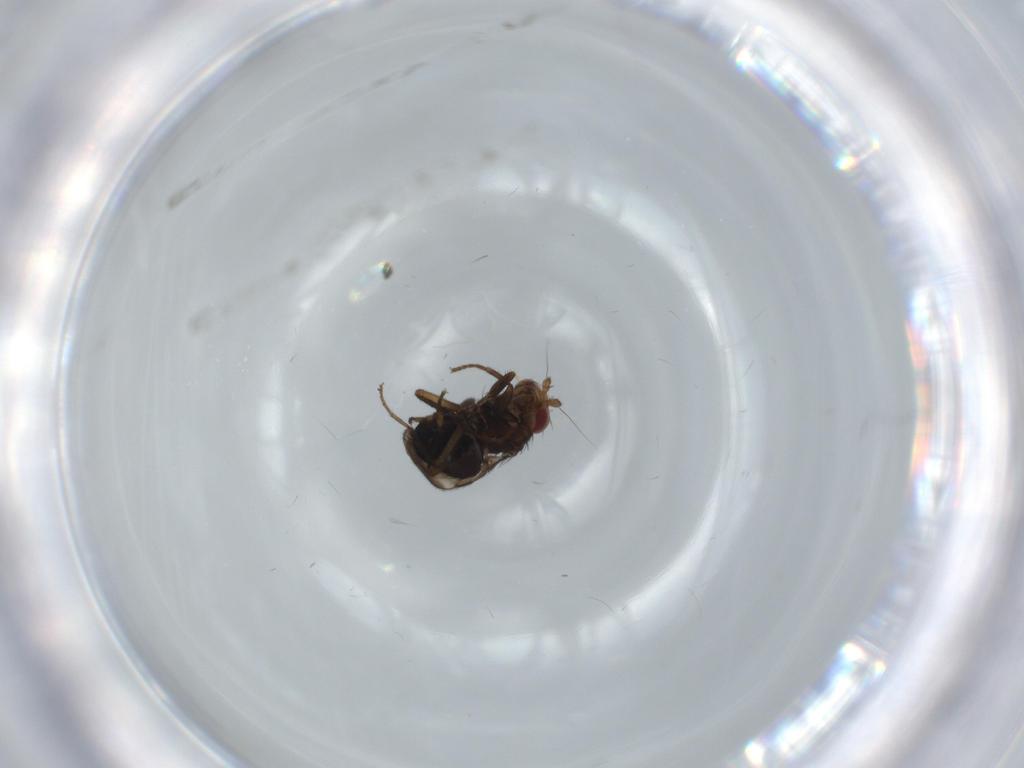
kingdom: Animalia
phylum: Arthropoda
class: Insecta
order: Diptera
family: Sphaeroceridae
